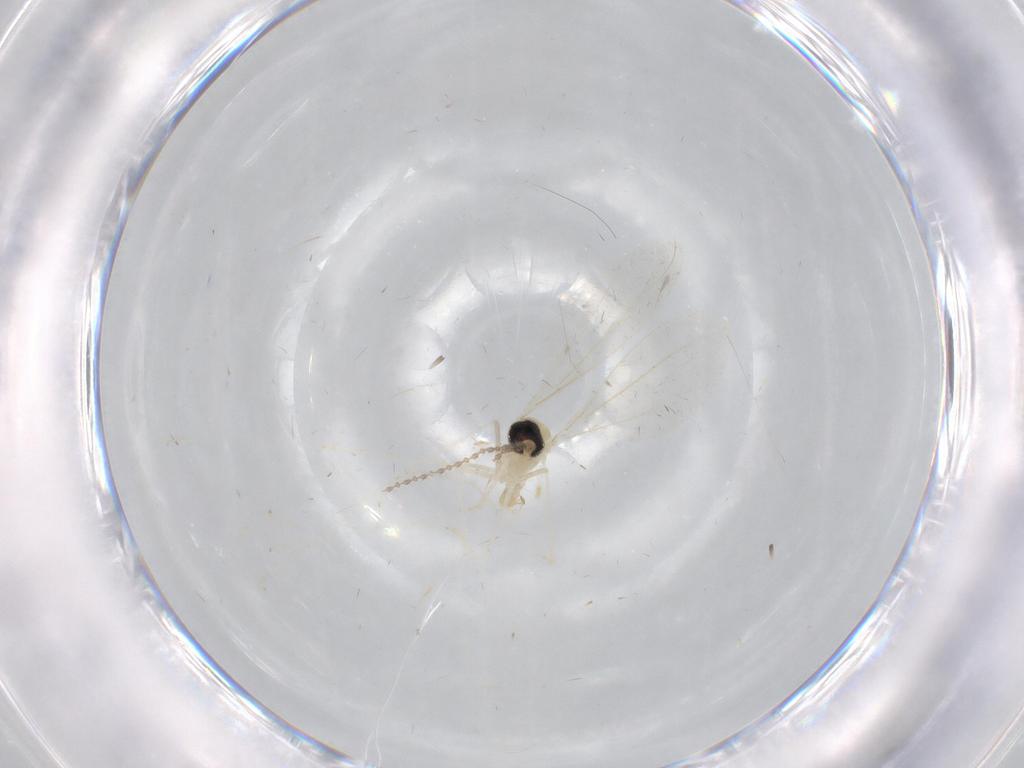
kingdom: Animalia
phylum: Arthropoda
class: Insecta
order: Diptera
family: Cecidomyiidae
